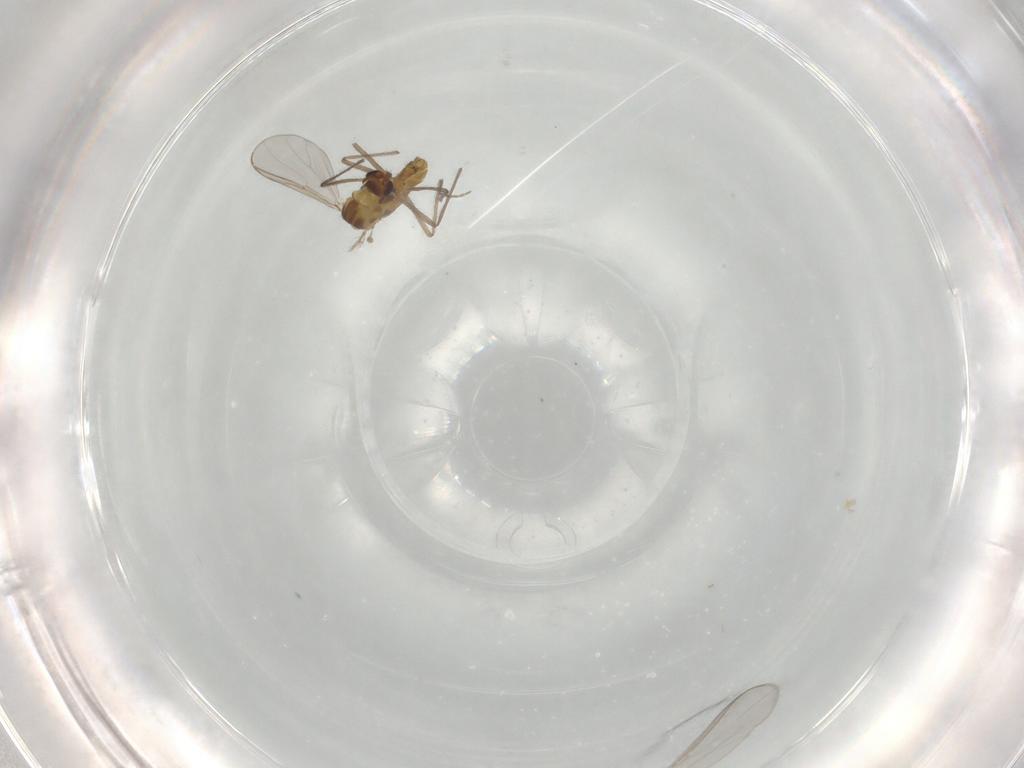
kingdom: Animalia
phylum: Arthropoda
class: Insecta
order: Diptera
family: Chironomidae
